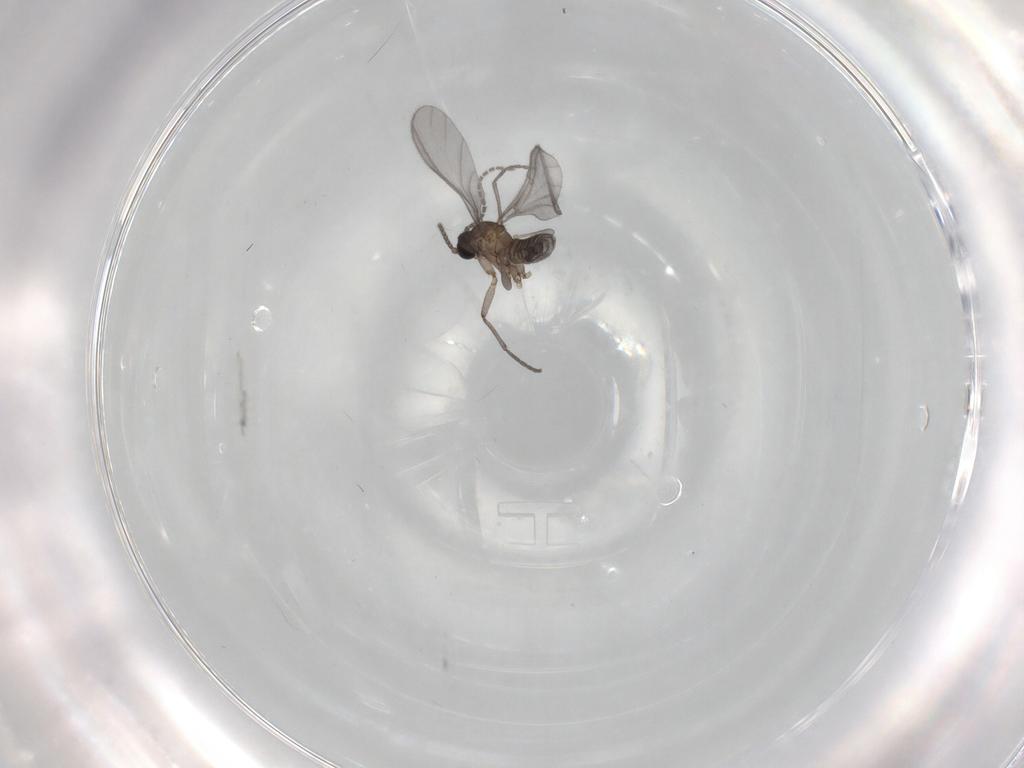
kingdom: Animalia
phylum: Arthropoda
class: Insecta
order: Diptera
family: Sciaridae
